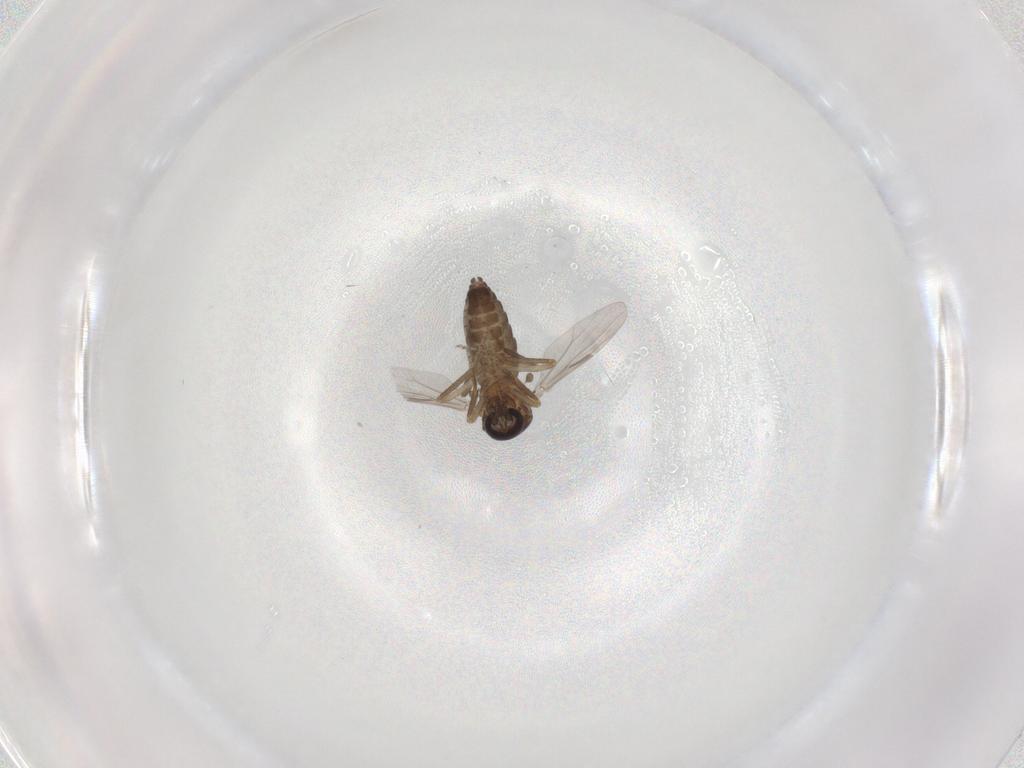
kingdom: Animalia
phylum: Arthropoda
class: Insecta
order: Diptera
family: Ceratopogonidae
